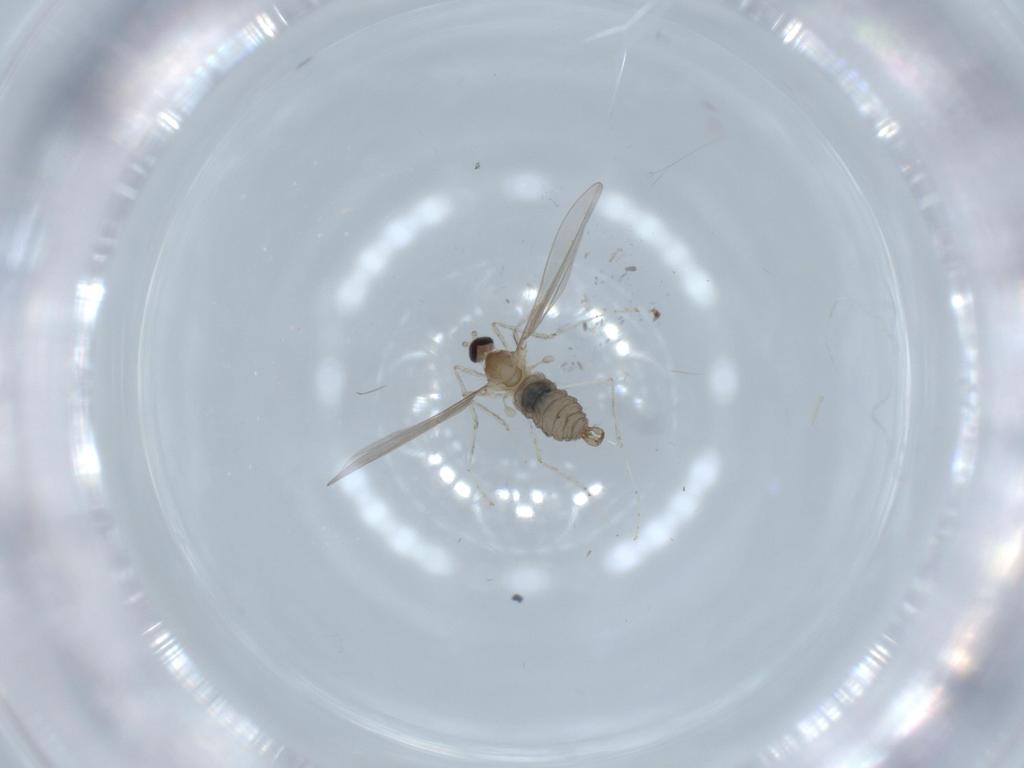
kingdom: Animalia
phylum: Arthropoda
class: Insecta
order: Diptera
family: Cecidomyiidae
